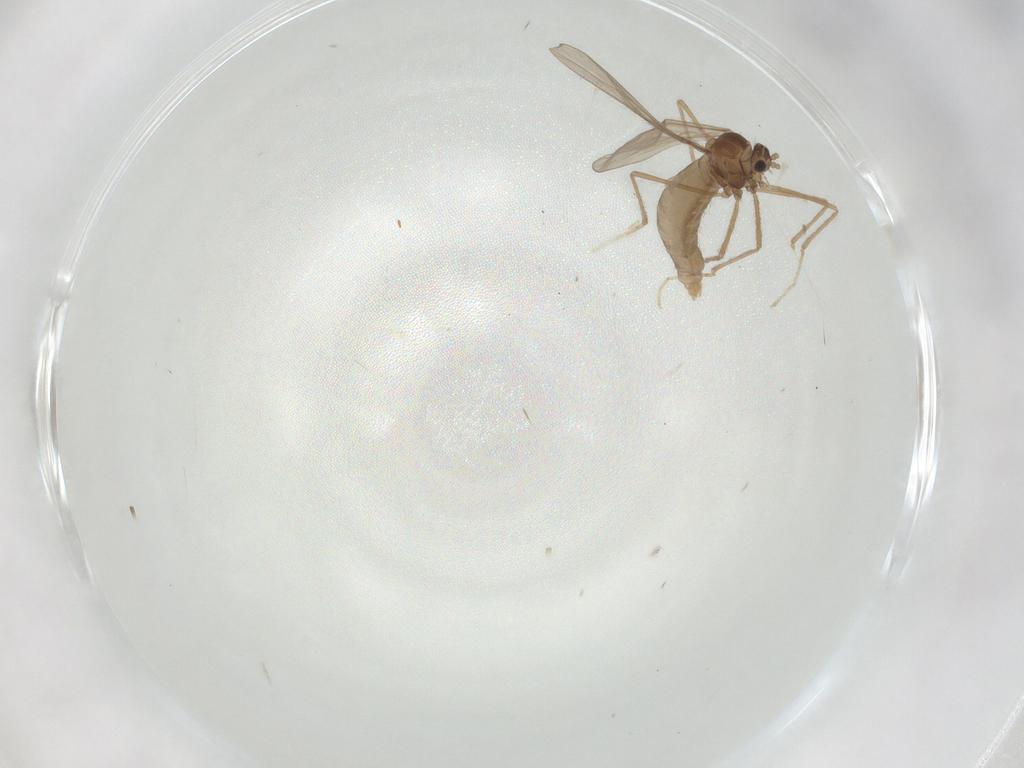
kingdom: Animalia
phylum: Arthropoda
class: Insecta
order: Diptera
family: Cecidomyiidae
